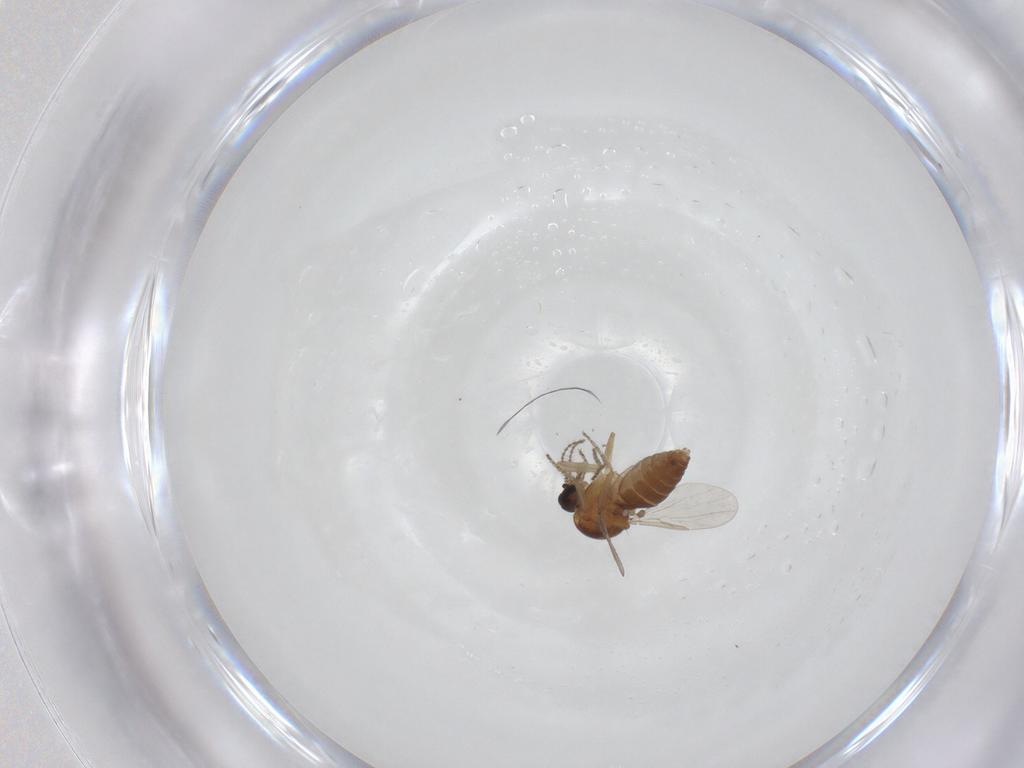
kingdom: Animalia
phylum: Arthropoda
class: Insecta
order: Diptera
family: Ceratopogonidae
